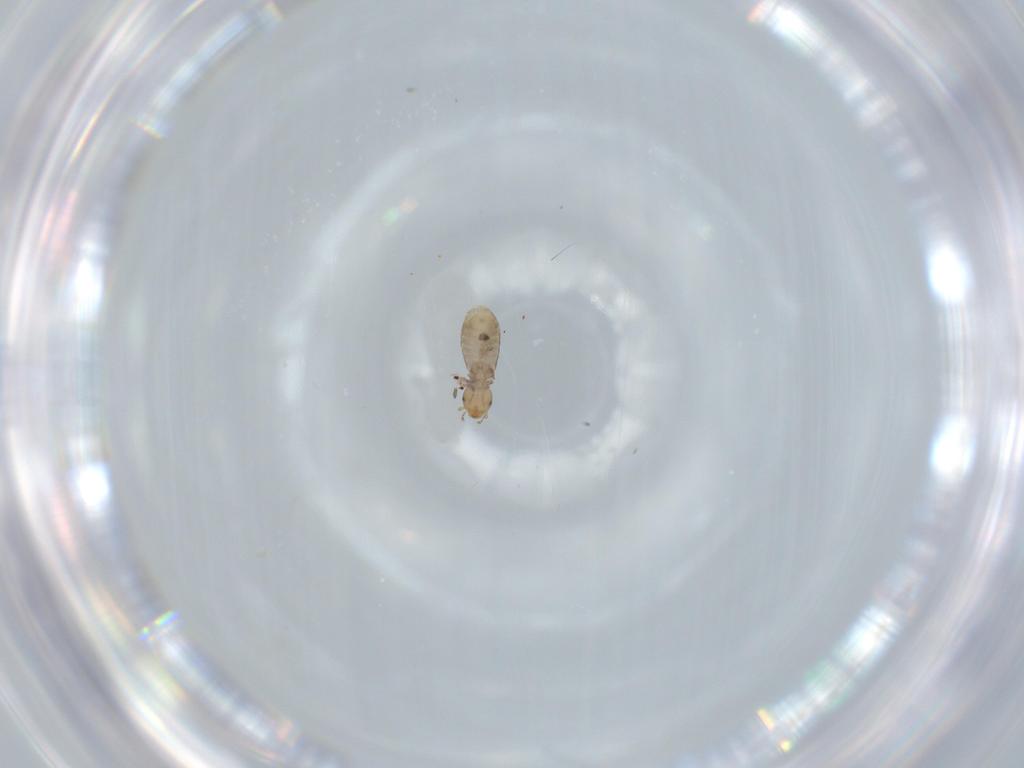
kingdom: Animalia
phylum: Arthropoda
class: Insecta
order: Psocodea
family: Liposcelididae
